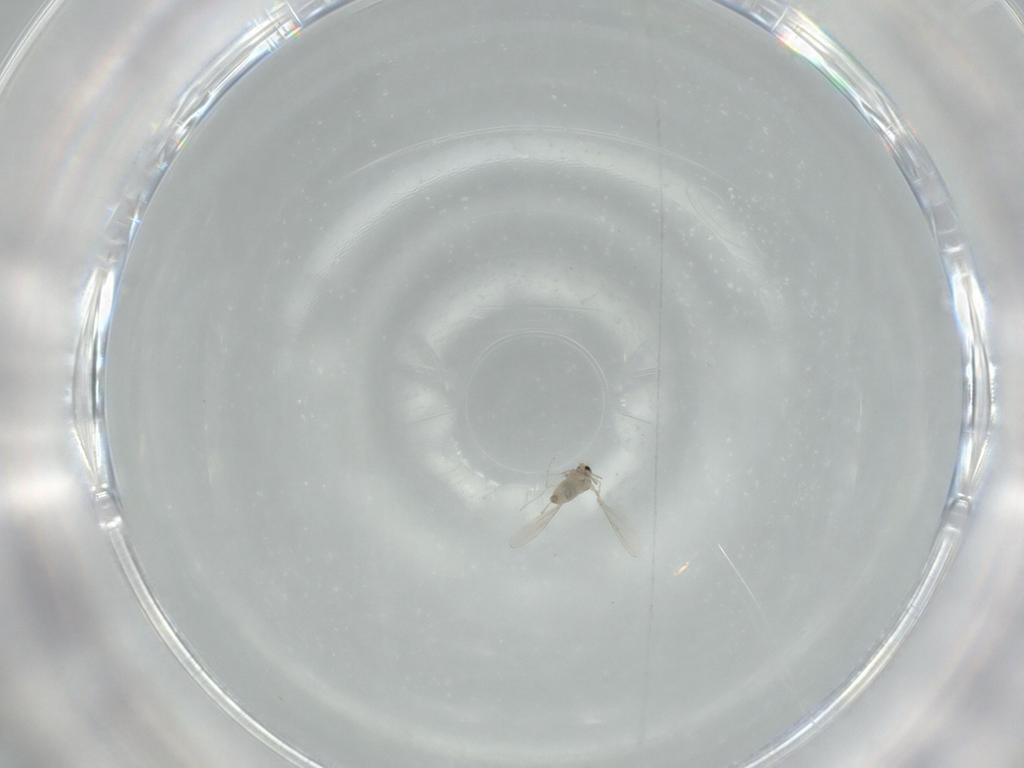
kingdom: Animalia
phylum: Arthropoda
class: Insecta
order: Diptera
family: Cecidomyiidae
